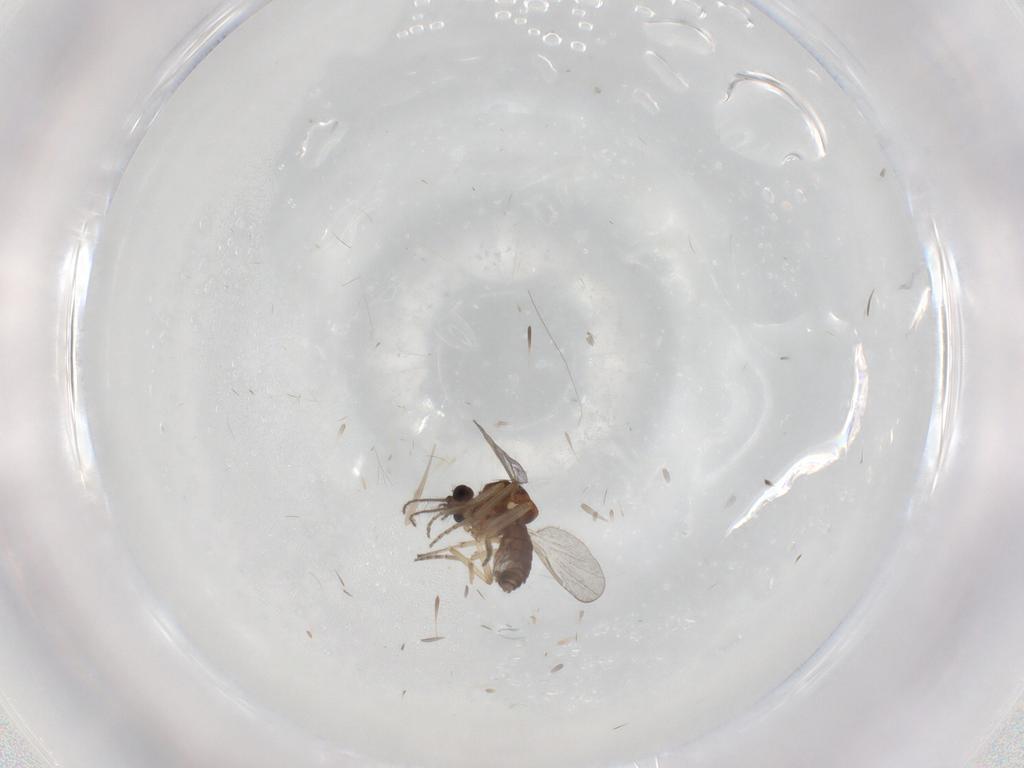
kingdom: Animalia
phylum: Arthropoda
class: Insecta
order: Diptera
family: Ceratopogonidae
